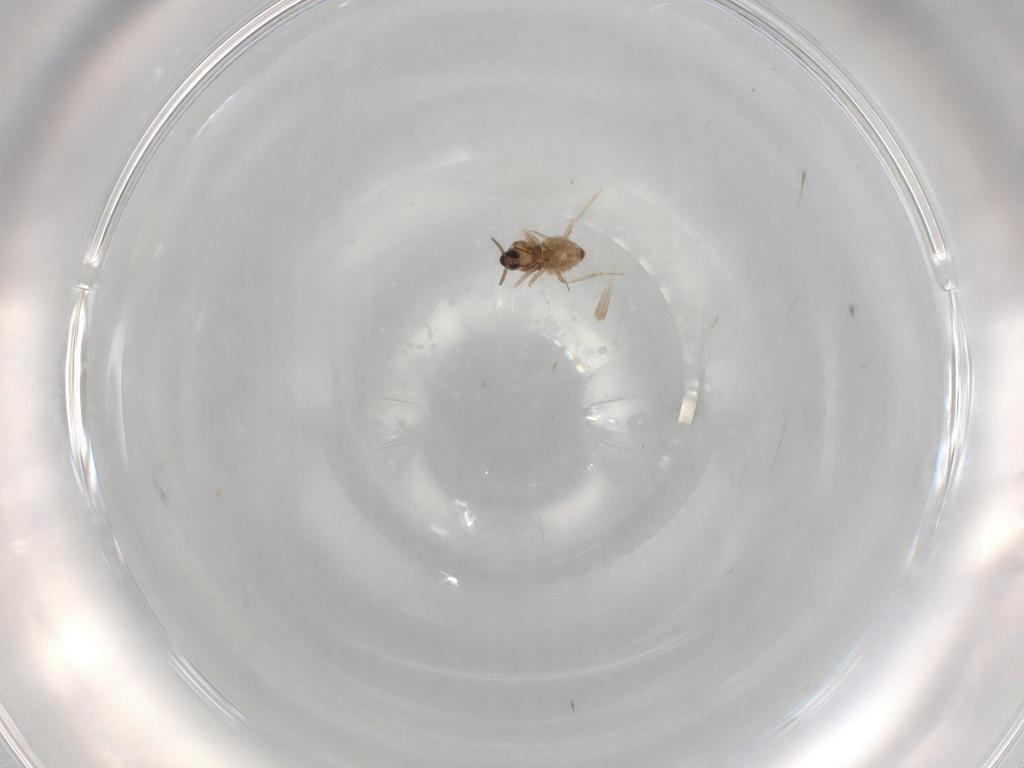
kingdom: Animalia
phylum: Arthropoda
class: Insecta
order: Diptera
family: Cecidomyiidae
